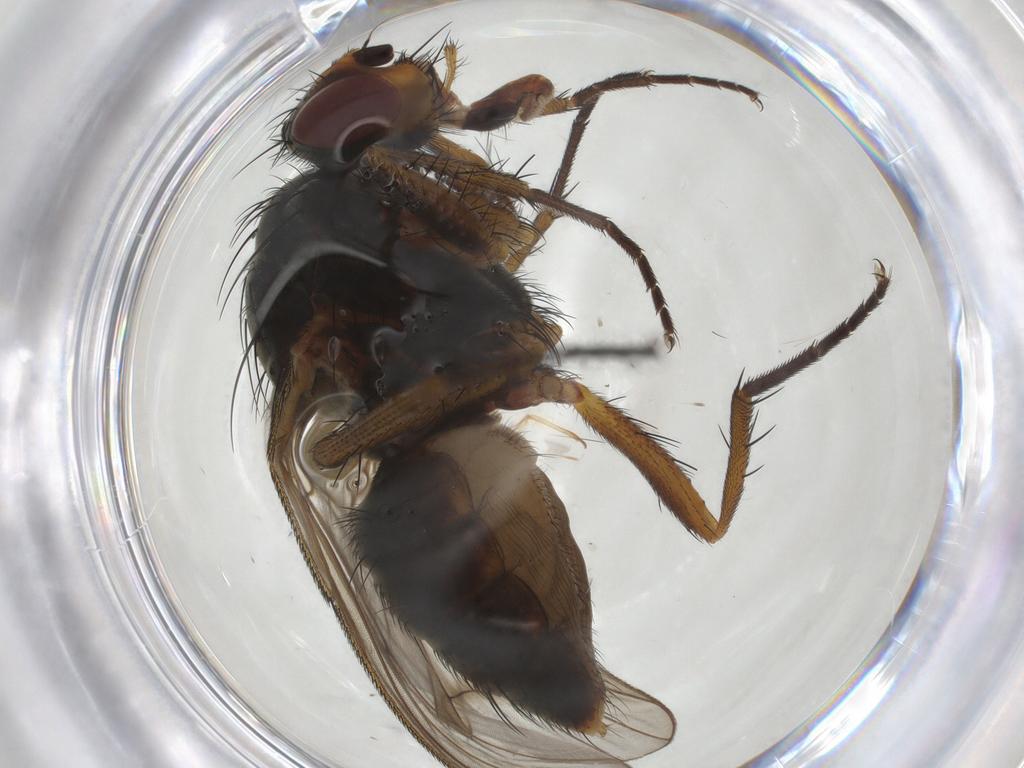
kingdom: Animalia
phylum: Arthropoda
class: Insecta
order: Diptera
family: Anthomyiidae
